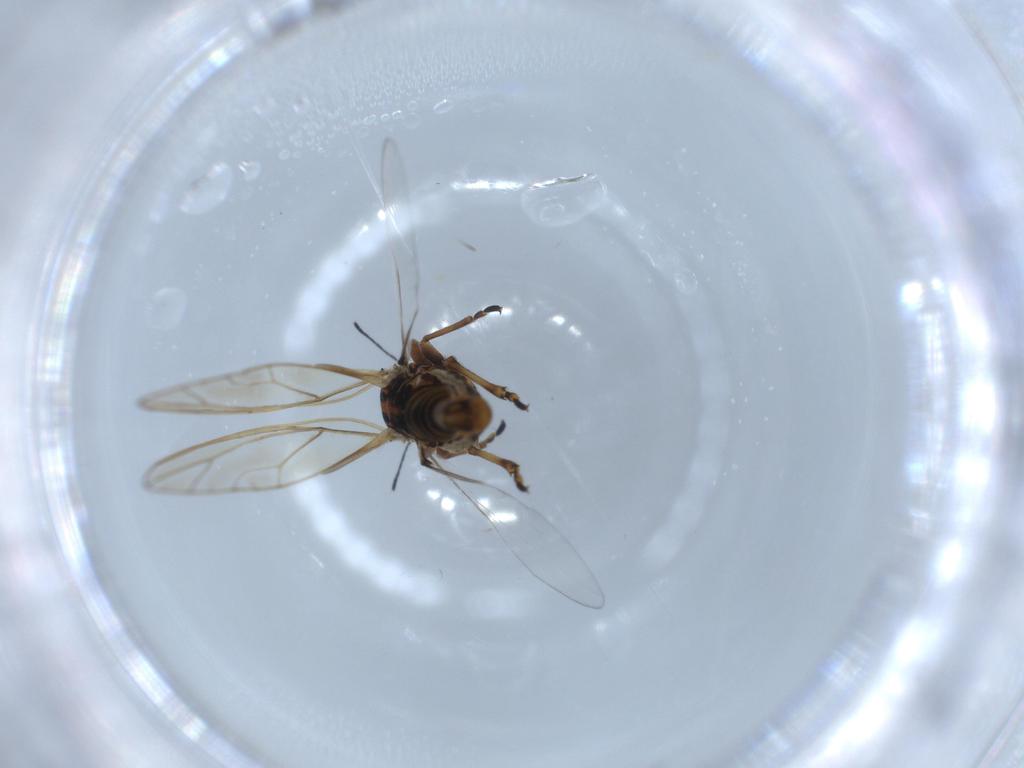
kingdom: Animalia
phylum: Arthropoda
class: Insecta
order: Hemiptera
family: Aleyrodidae
